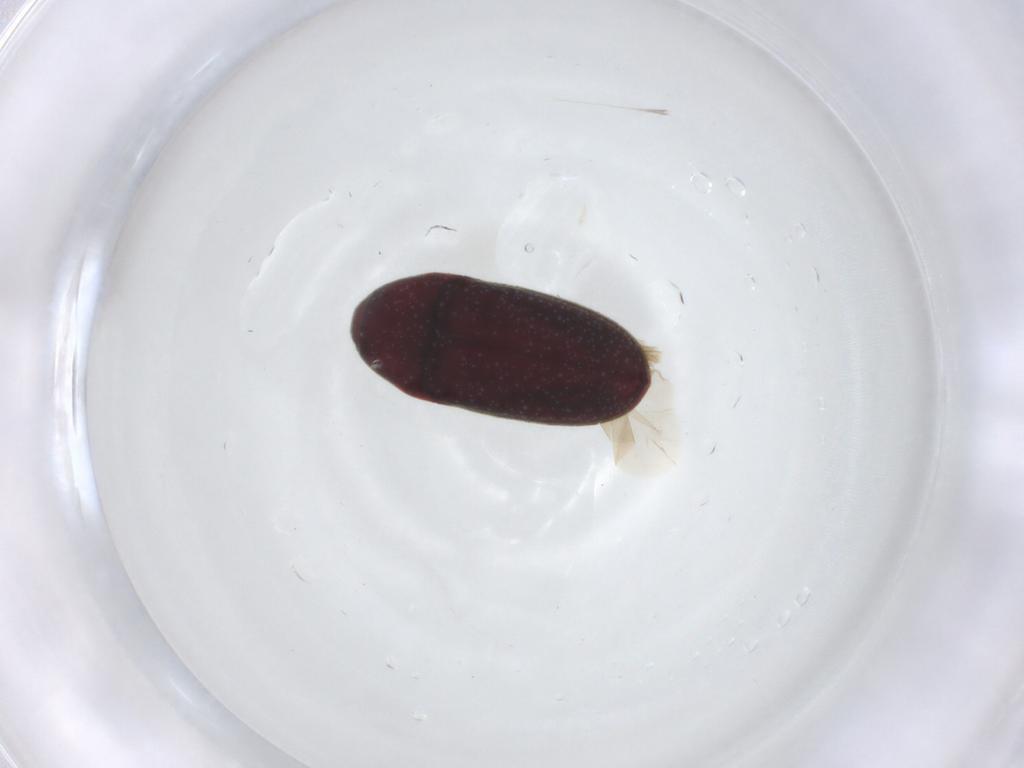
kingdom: Animalia
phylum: Arthropoda
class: Insecta
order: Coleoptera
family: Throscidae
